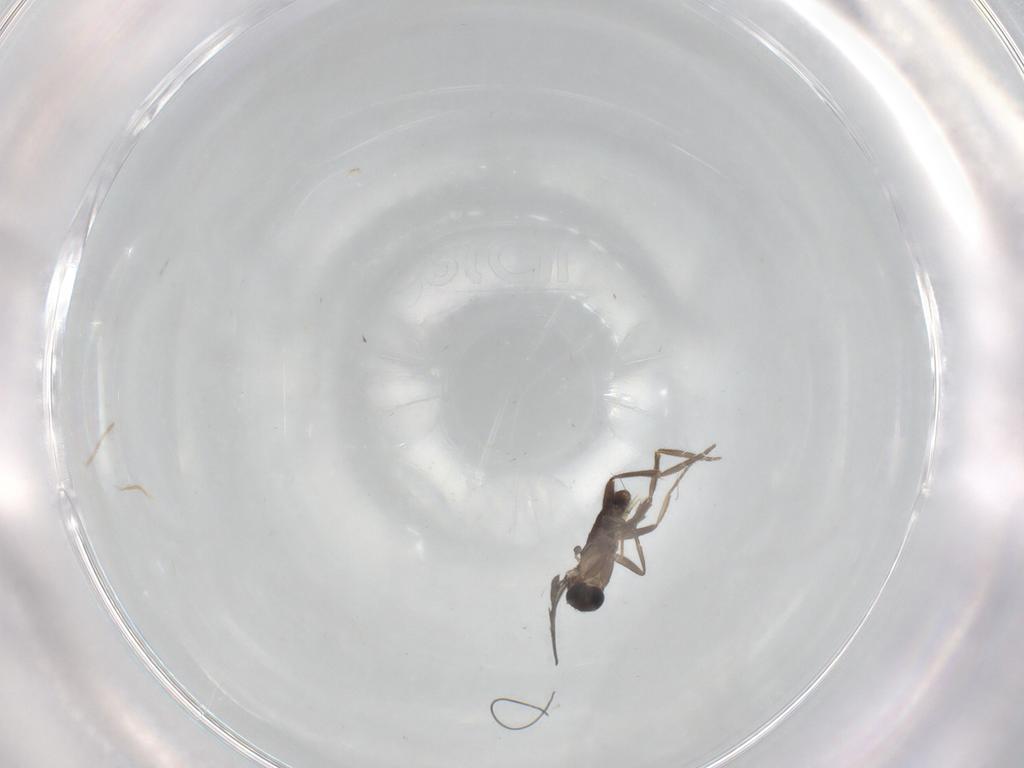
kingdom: Animalia
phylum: Arthropoda
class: Insecta
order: Diptera
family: Phoridae
